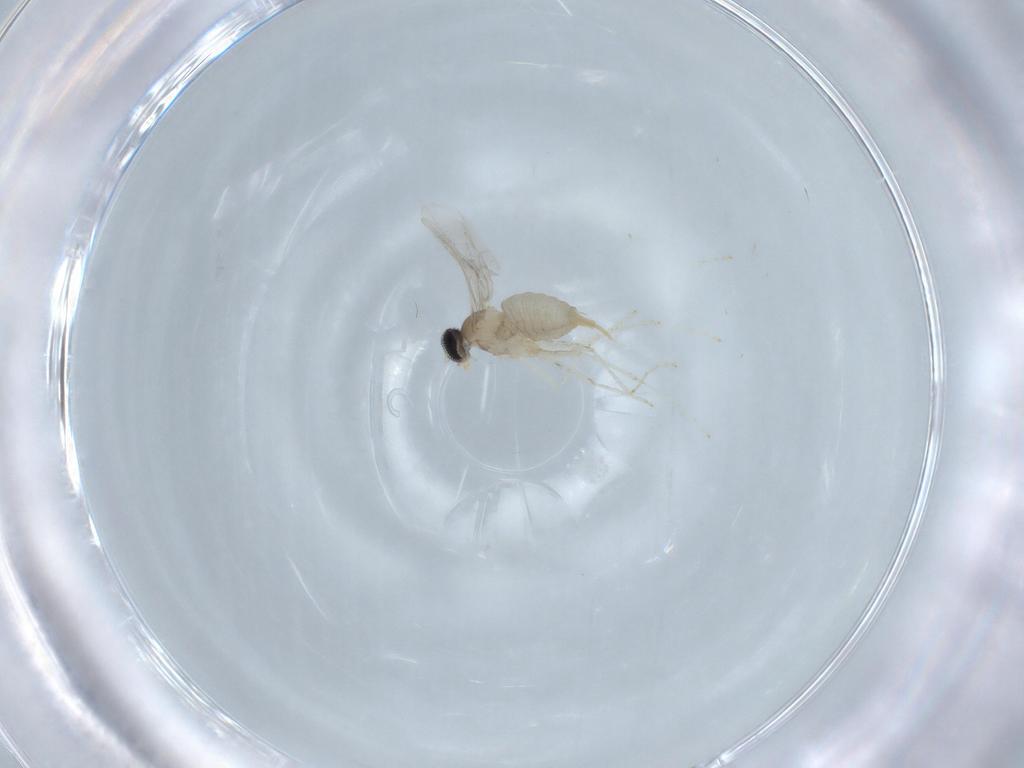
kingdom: Animalia
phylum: Arthropoda
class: Insecta
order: Diptera
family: Cecidomyiidae
